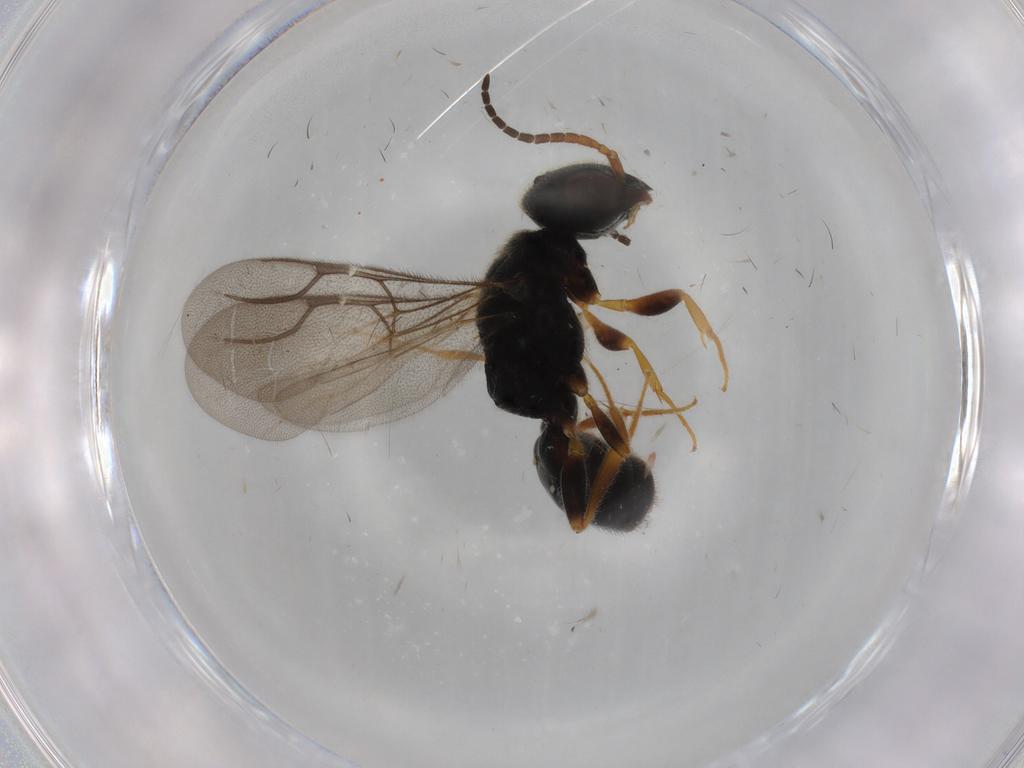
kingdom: Animalia
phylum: Arthropoda
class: Insecta
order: Hymenoptera
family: Bethylidae
